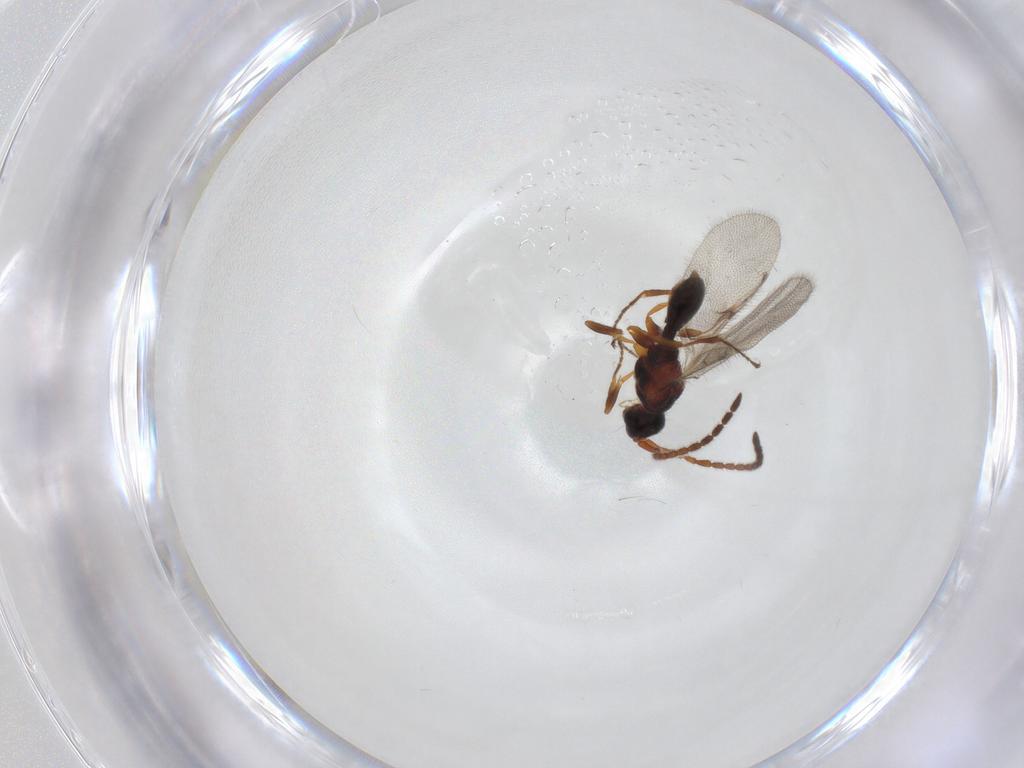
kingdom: Animalia
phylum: Arthropoda
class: Insecta
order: Hymenoptera
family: Diapriidae
